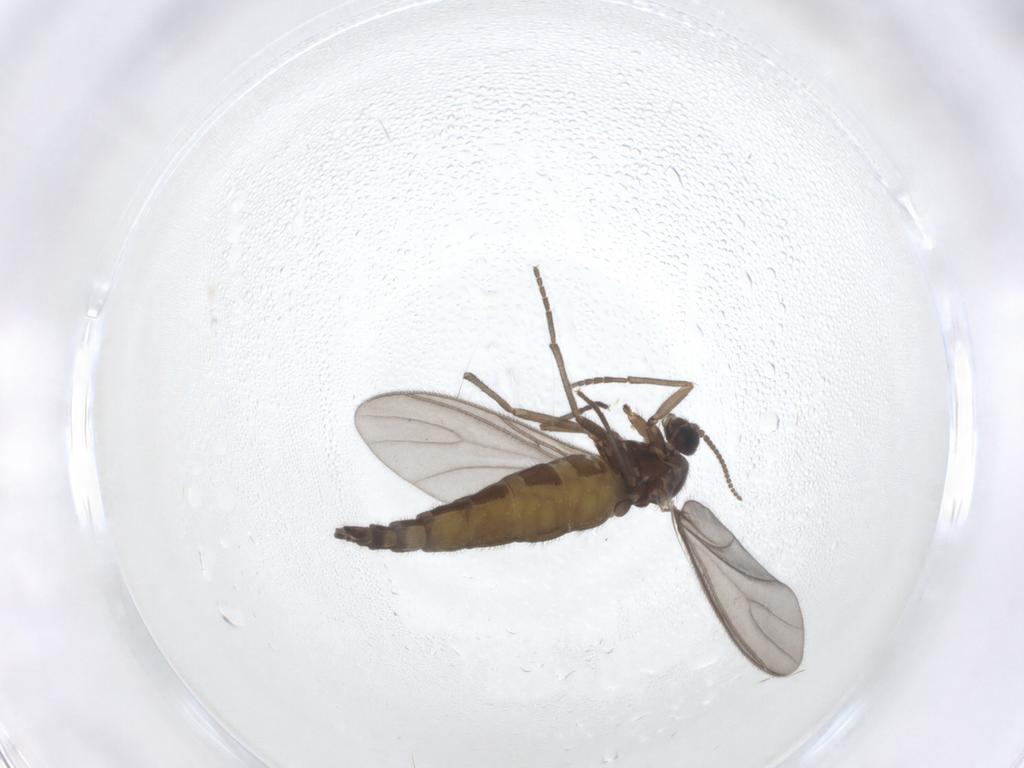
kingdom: Animalia
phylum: Arthropoda
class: Insecta
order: Diptera
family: Sciaridae
